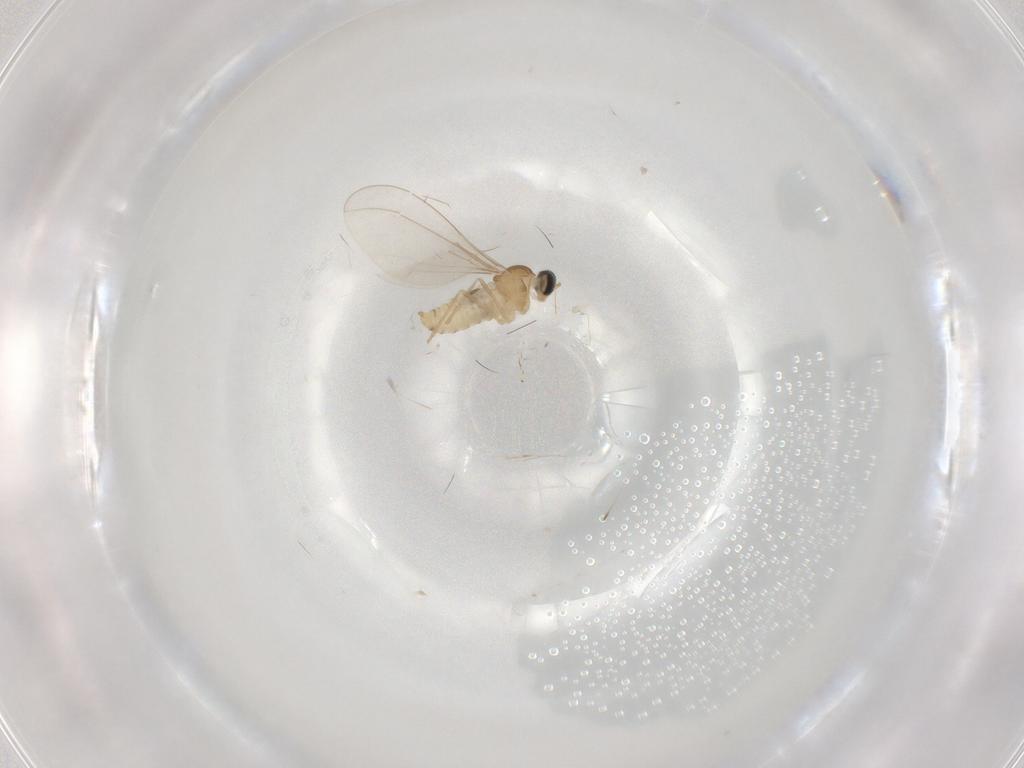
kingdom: Animalia
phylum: Arthropoda
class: Insecta
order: Diptera
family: Cecidomyiidae
